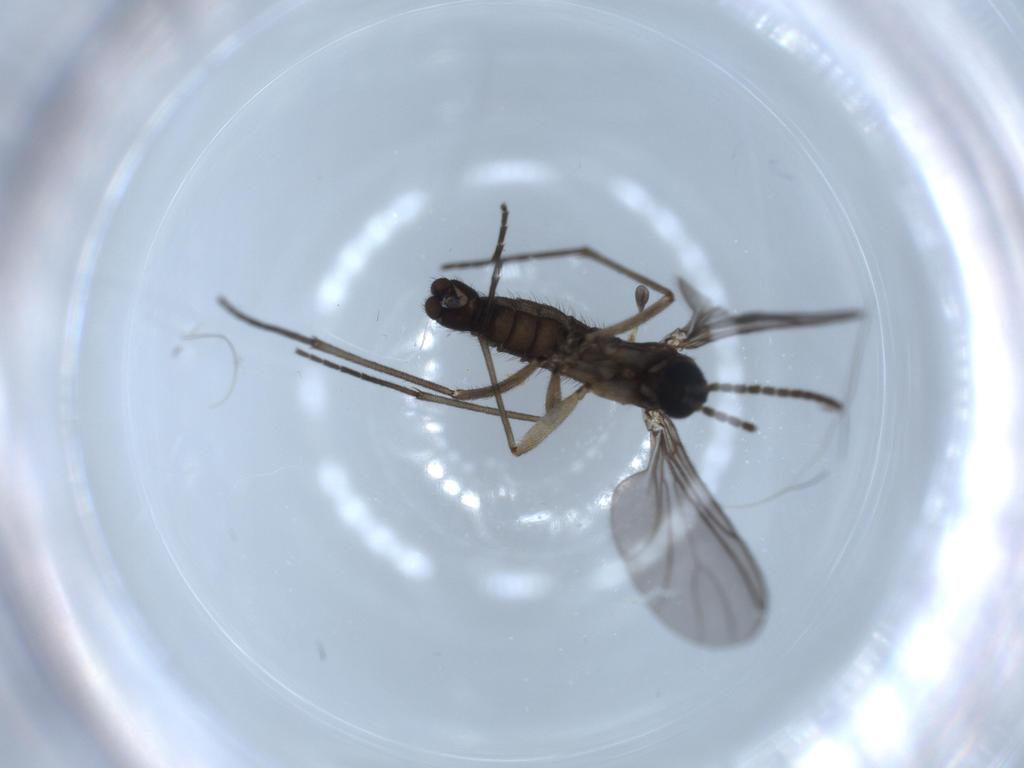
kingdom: Animalia
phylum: Arthropoda
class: Insecta
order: Diptera
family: Sciaridae
